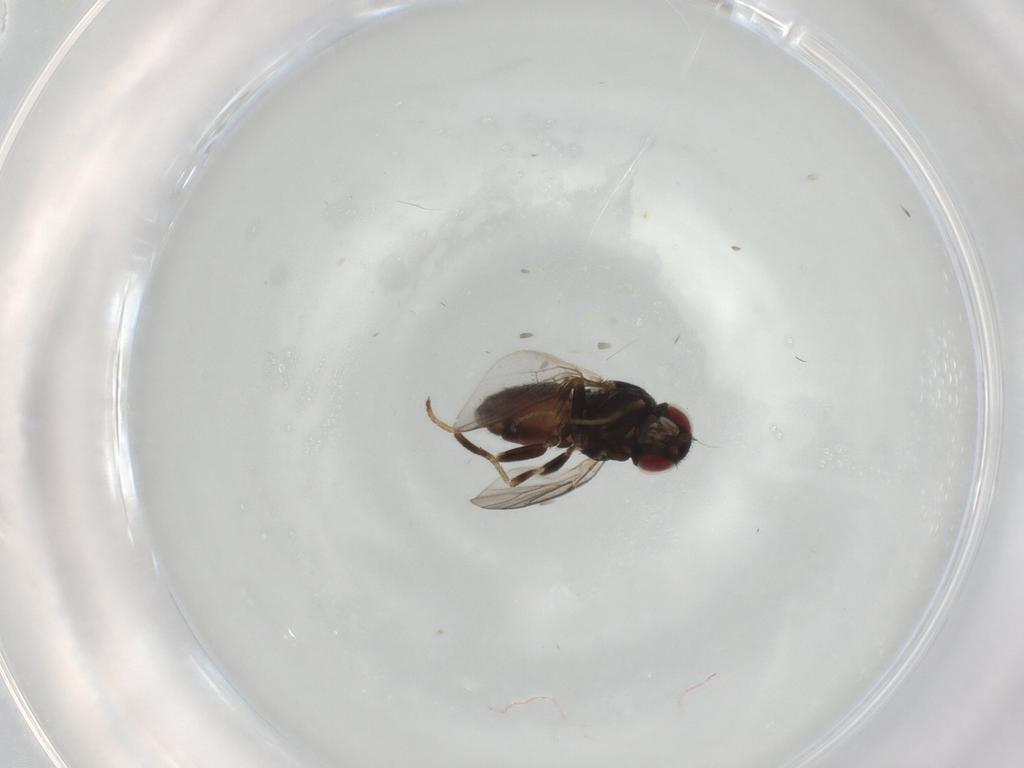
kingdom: Animalia
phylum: Arthropoda
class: Insecta
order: Diptera
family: Chloropidae
